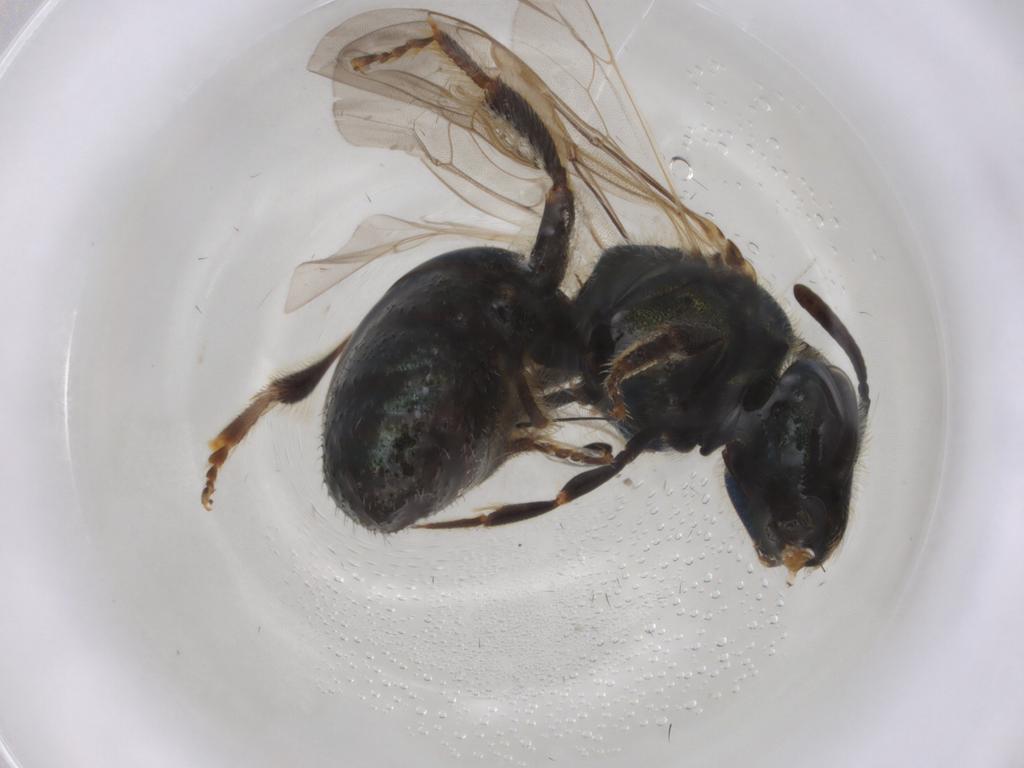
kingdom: Animalia
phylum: Arthropoda
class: Insecta
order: Hymenoptera
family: Halictidae
